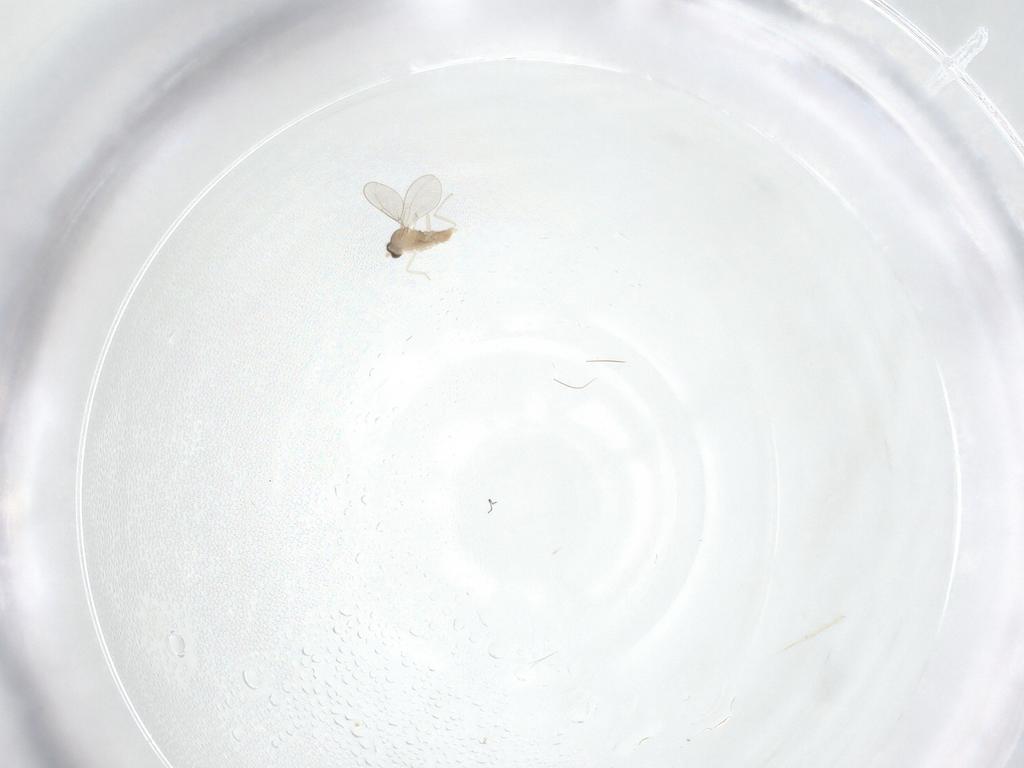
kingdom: Animalia
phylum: Arthropoda
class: Insecta
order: Diptera
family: Cecidomyiidae
